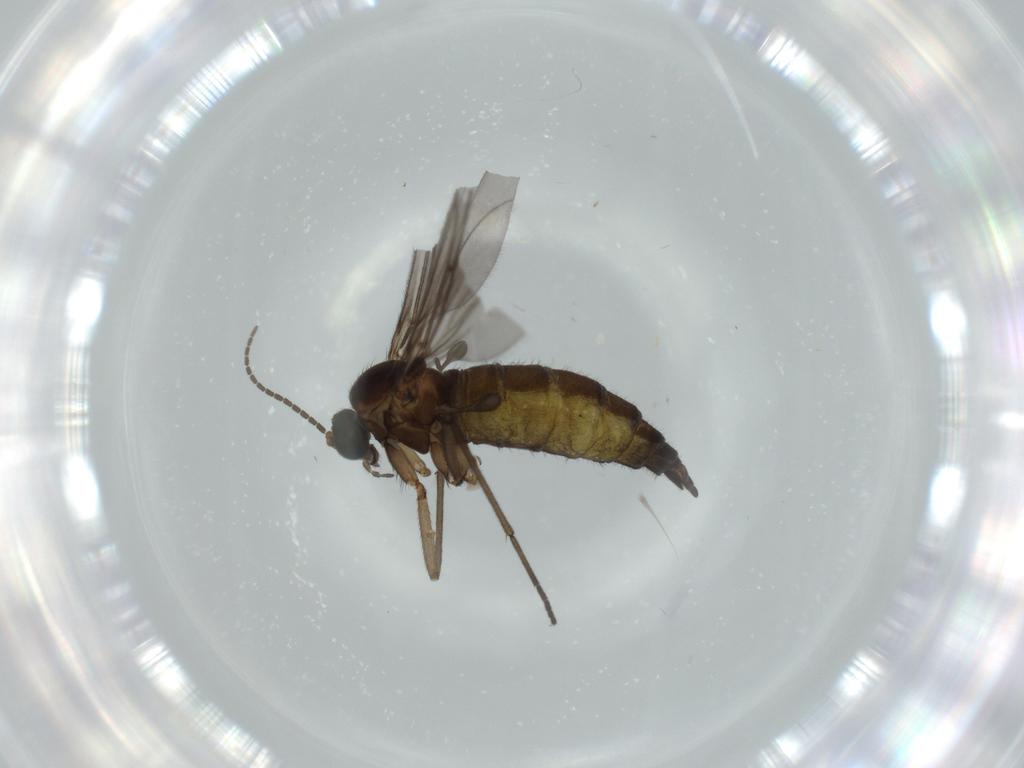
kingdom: Animalia
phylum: Arthropoda
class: Insecta
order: Diptera
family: Sciaridae
